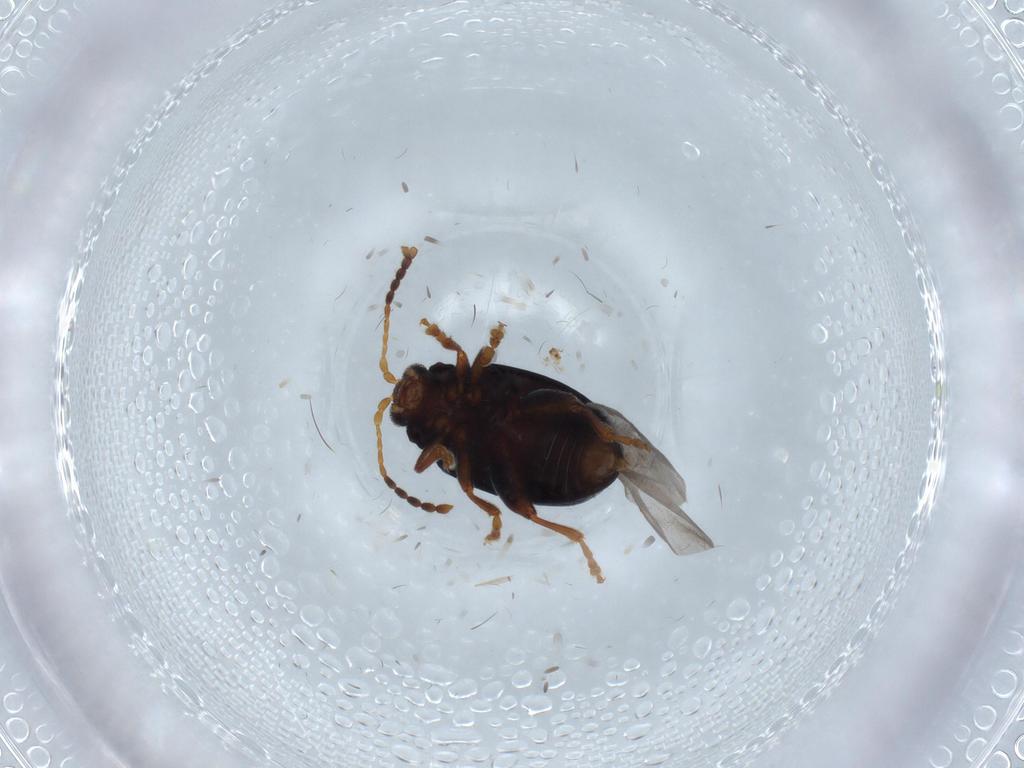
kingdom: Animalia
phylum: Arthropoda
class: Insecta
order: Coleoptera
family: Chrysomelidae
